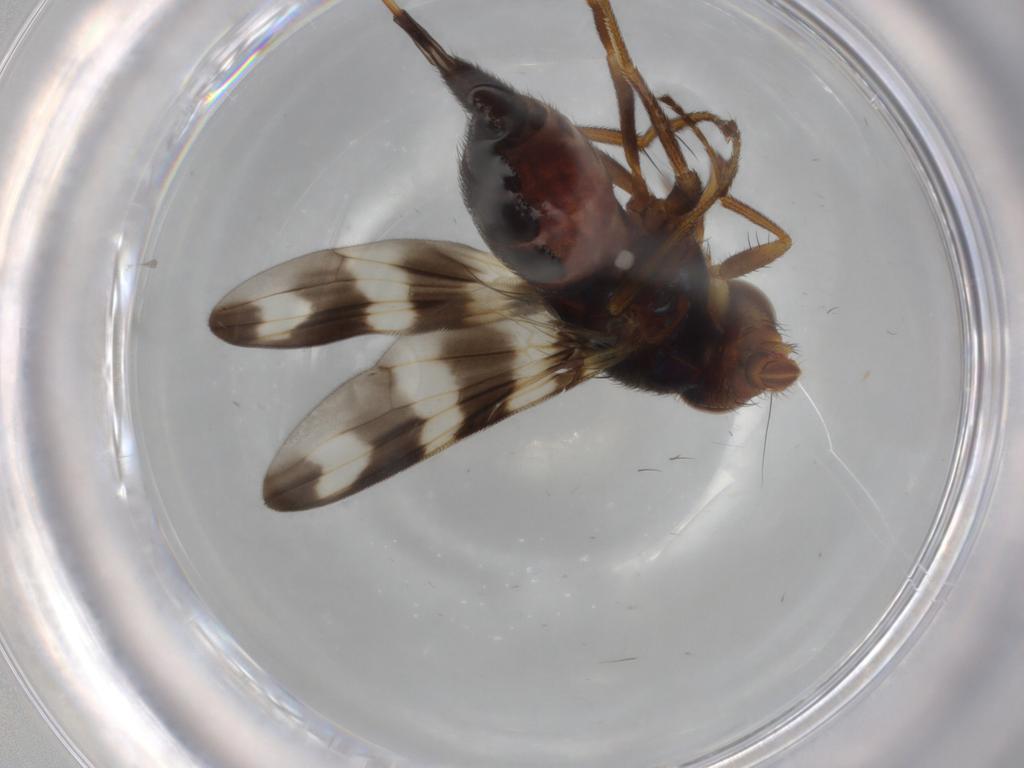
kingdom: Animalia
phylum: Arthropoda
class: Insecta
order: Diptera
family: Ulidiidae
